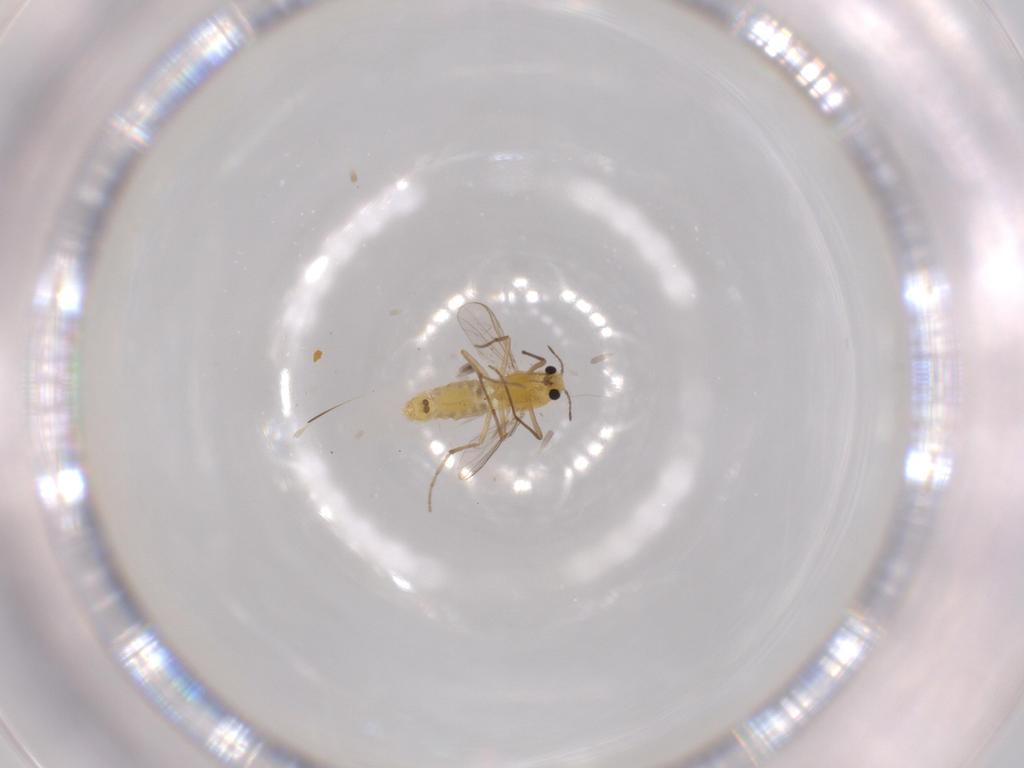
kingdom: Animalia
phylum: Arthropoda
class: Insecta
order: Diptera
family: Chironomidae
